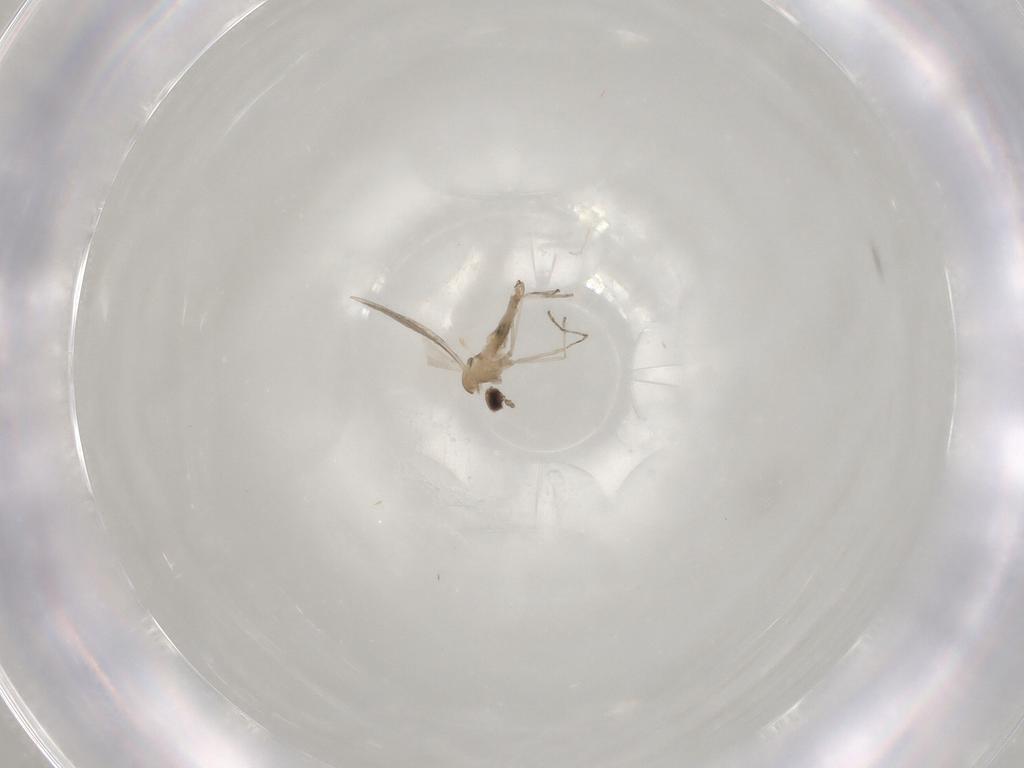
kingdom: Animalia
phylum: Arthropoda
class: Insecta
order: Diptera
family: Cecidomyiidae
